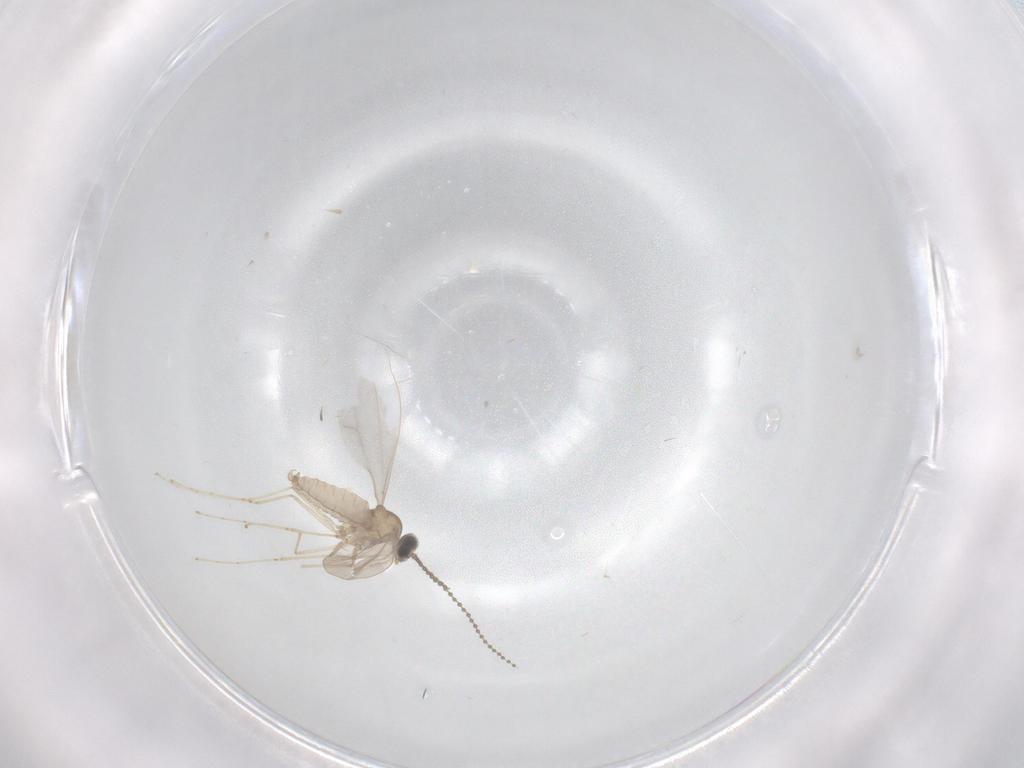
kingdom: Animalia
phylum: Arthropoda
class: Insecta
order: Diptera
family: Cecidomyiidae
